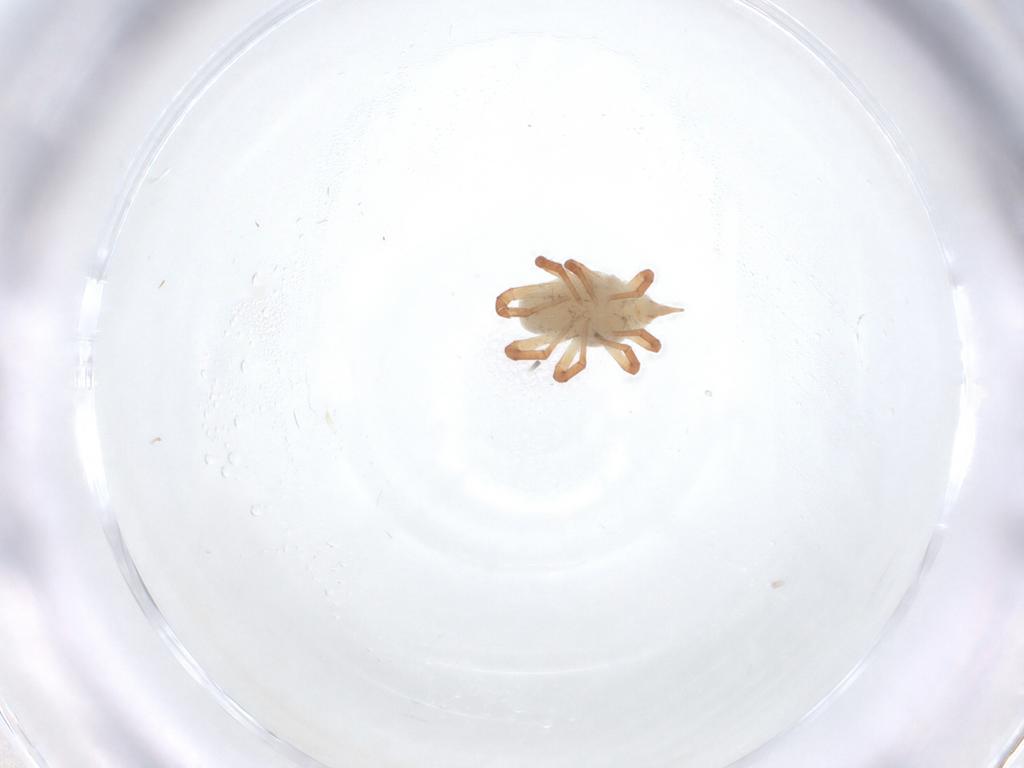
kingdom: Animalia
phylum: Arthropoda
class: Arachnida
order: Trombidiformes
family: Bdellidae
